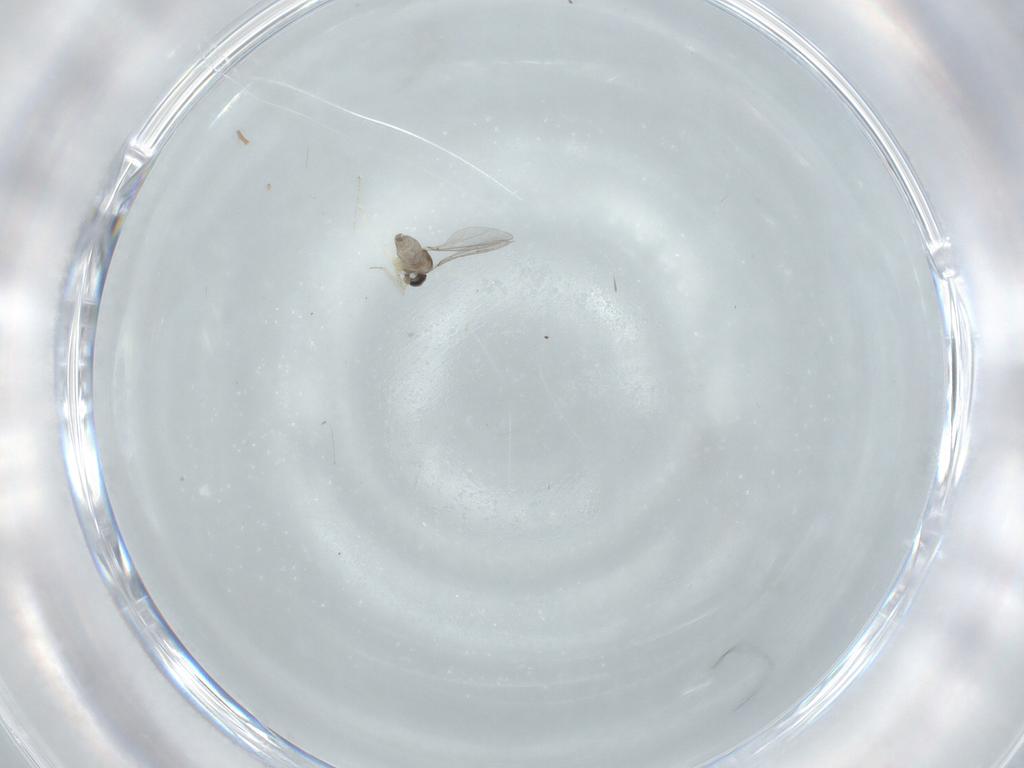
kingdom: Animalia
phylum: Arthropoda
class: Insecta
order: Diptera
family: Cecidomyiidae
